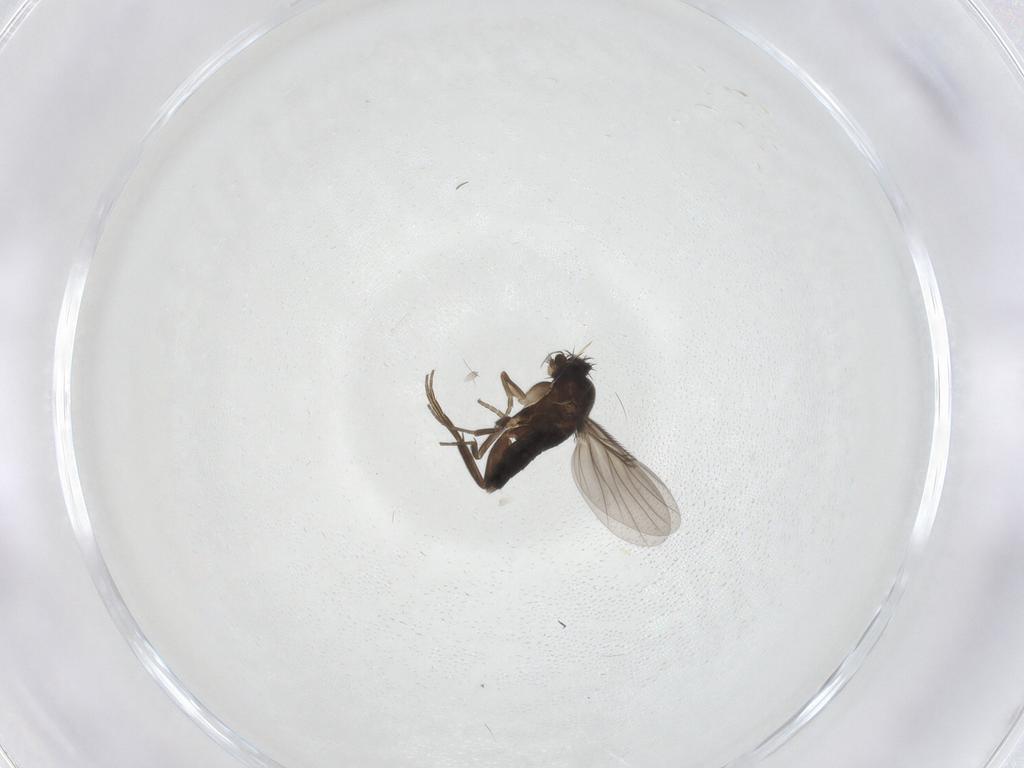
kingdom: Animalia
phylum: Arthropoda
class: Insecta
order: Diptera
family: Phoridae
